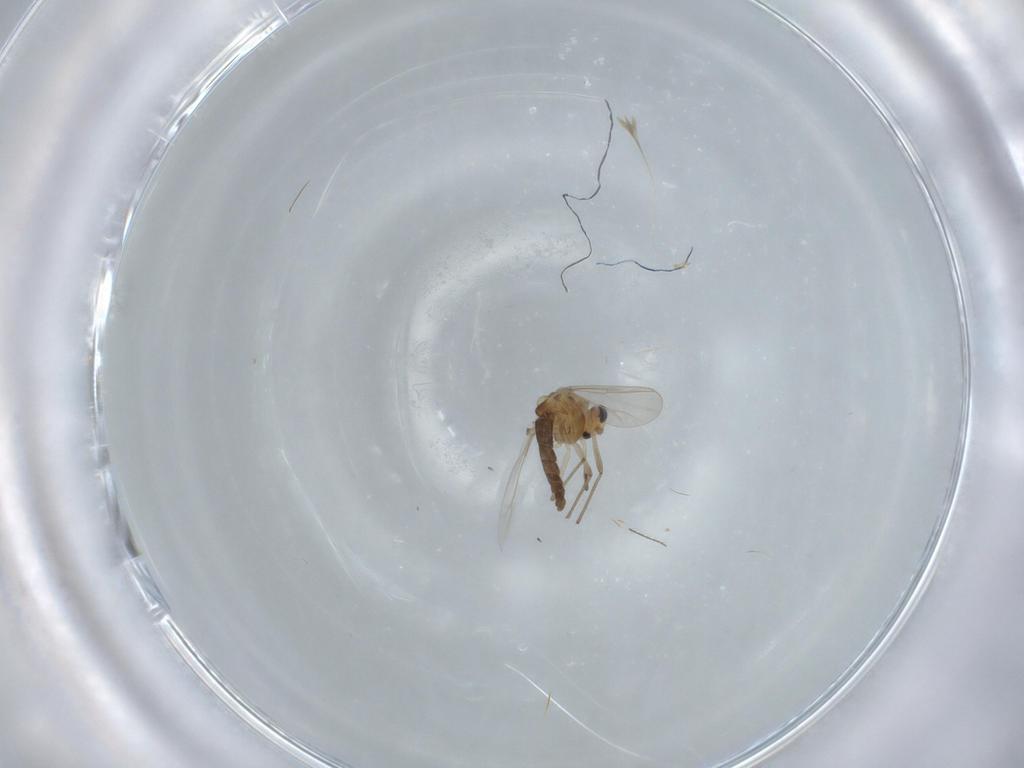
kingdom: Animalia
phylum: Arthropoda
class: Insecta
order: Diptera
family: Chironomidae
